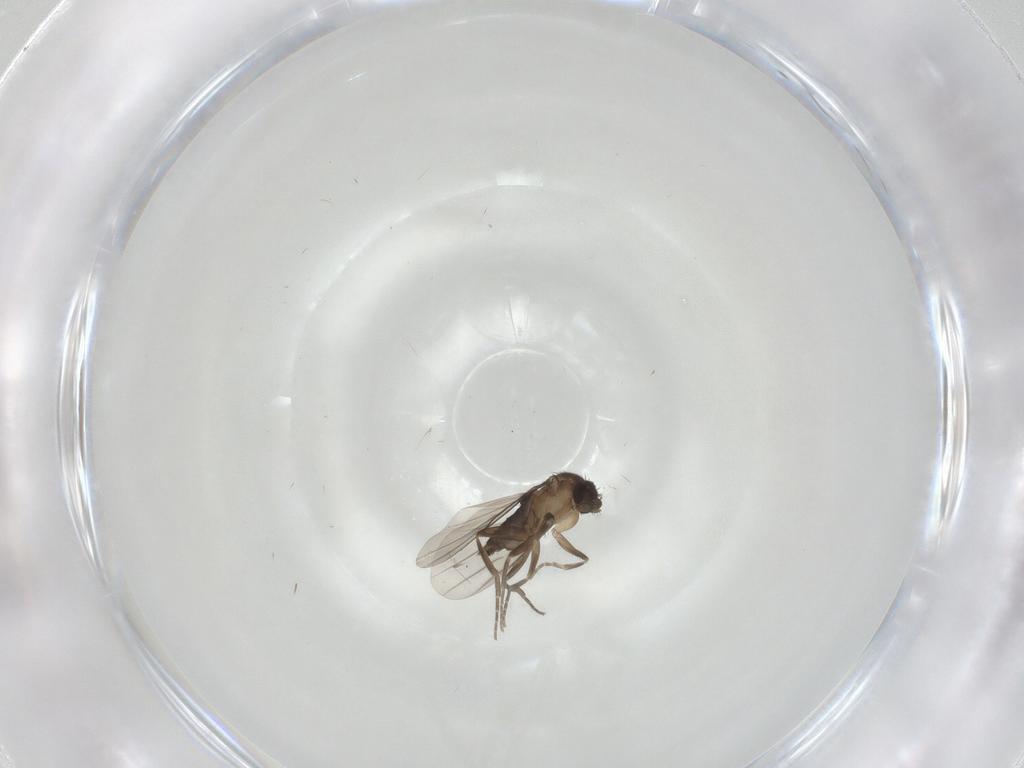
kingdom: Animalia
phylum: Arthropoda
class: Insecta
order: Diptera
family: Phoridae
